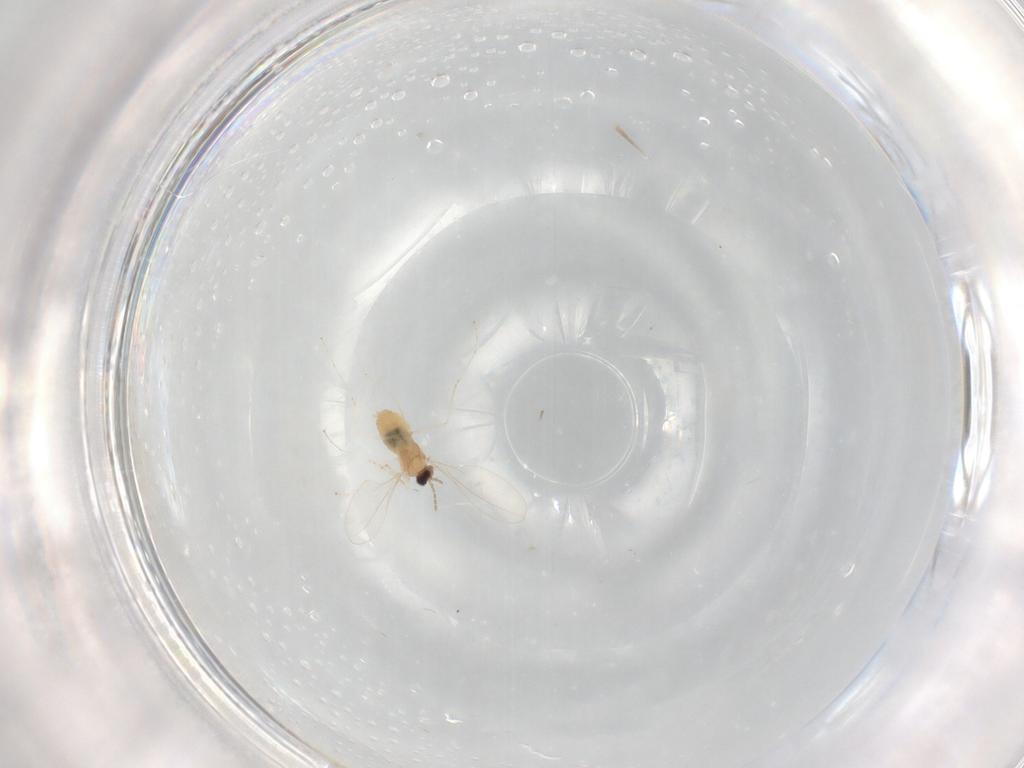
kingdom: Animalia
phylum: Arthropoda
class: Insecta
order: Diptera
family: Cecidomyiidae
